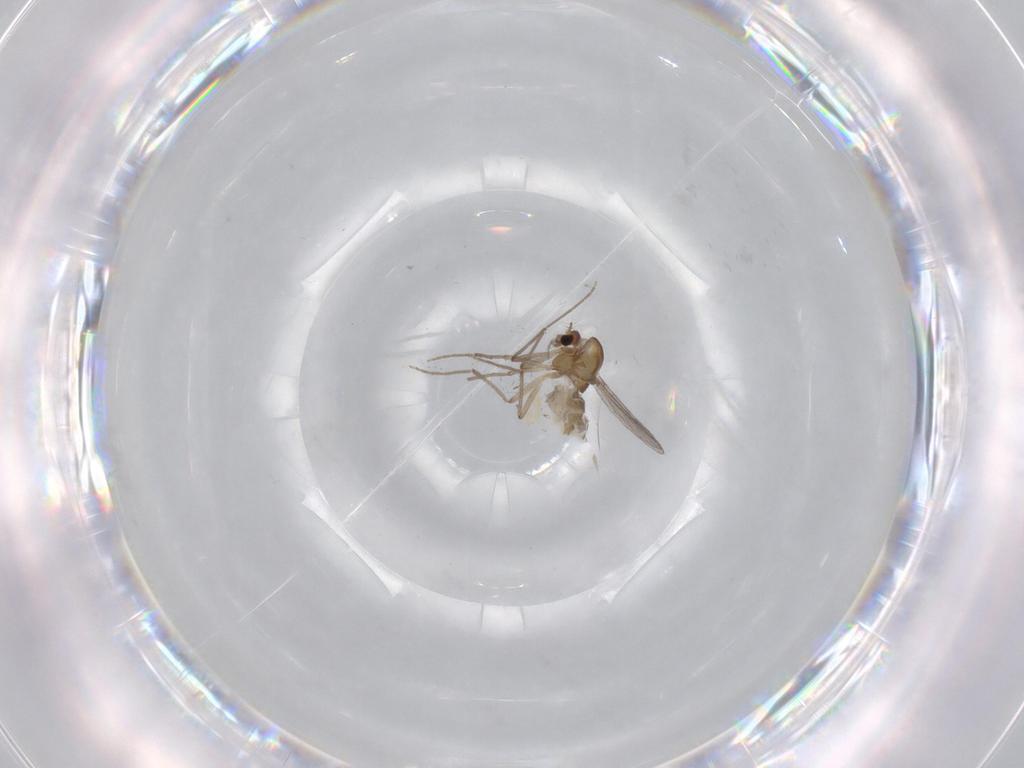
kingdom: Animalia
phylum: Arthropoda
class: Insecta
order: Diptera
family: Chironomidae
